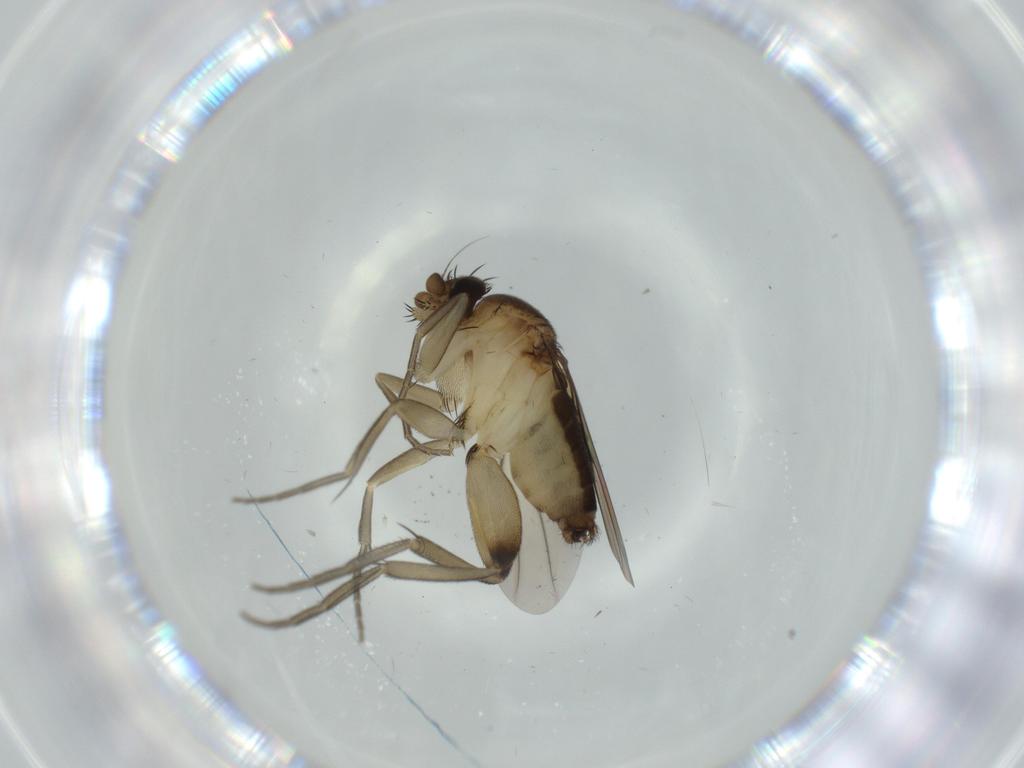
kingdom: Animalia
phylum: Arthropoda
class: Insecta
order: Diptera
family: Phoridae
